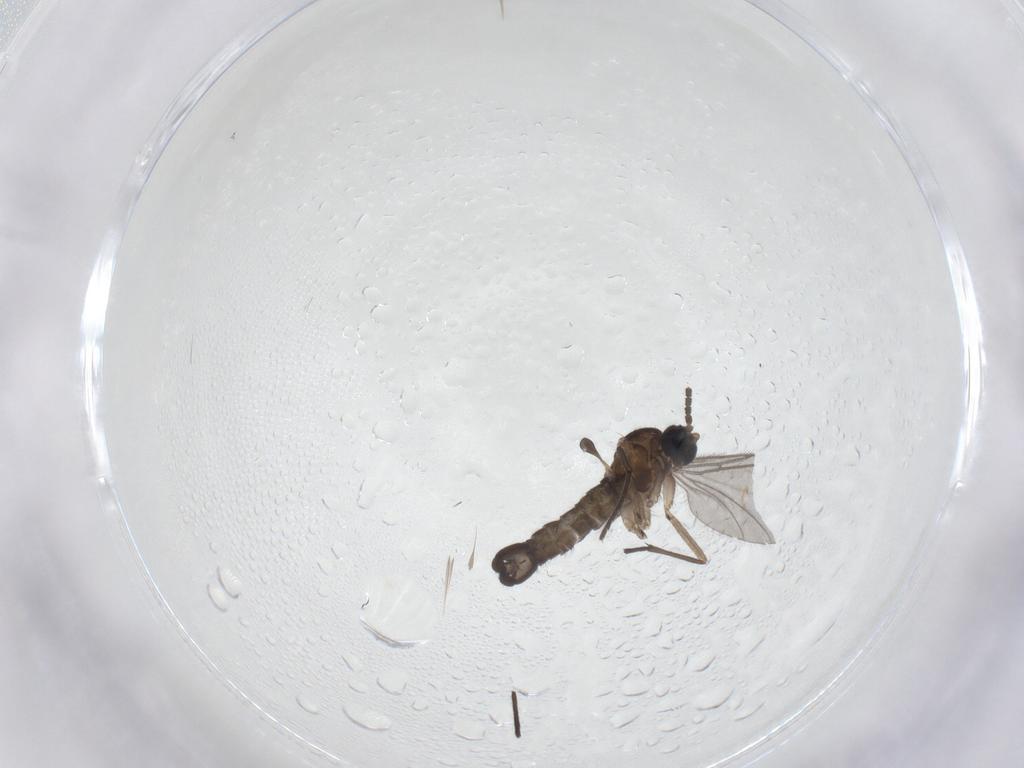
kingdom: Animalia
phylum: Arthropoda
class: Insecta
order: Diptera
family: Sciaridae
